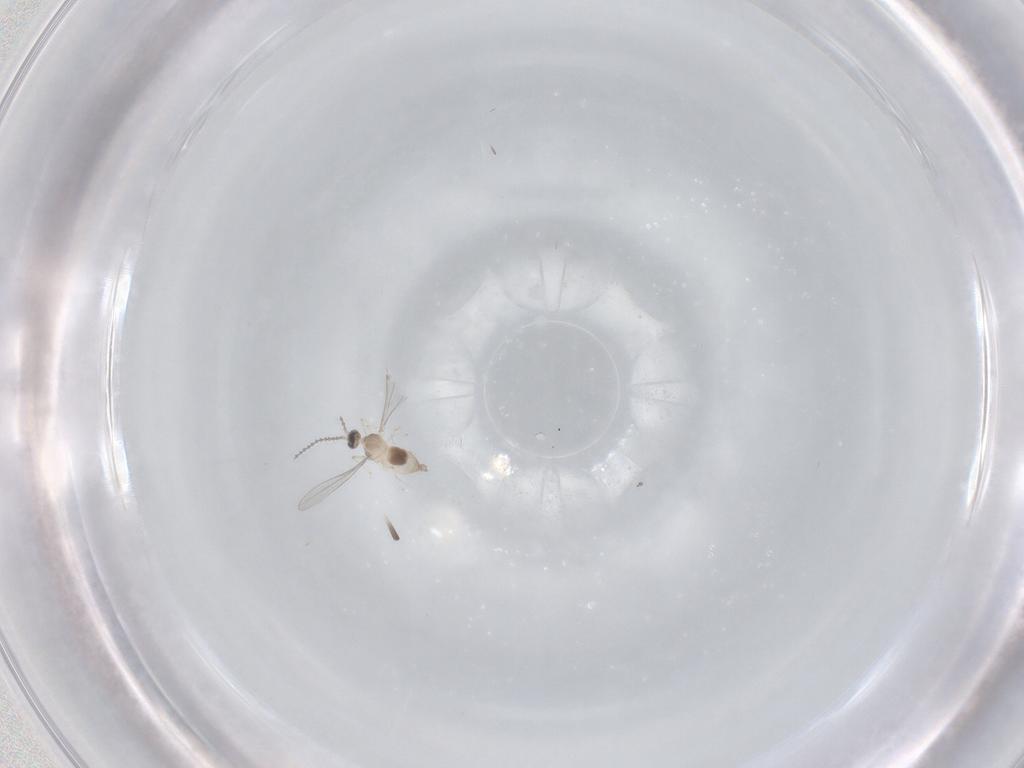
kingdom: Animalia
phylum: Arthropoda
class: Insecta
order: Diptera
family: Cecidomyiidae
